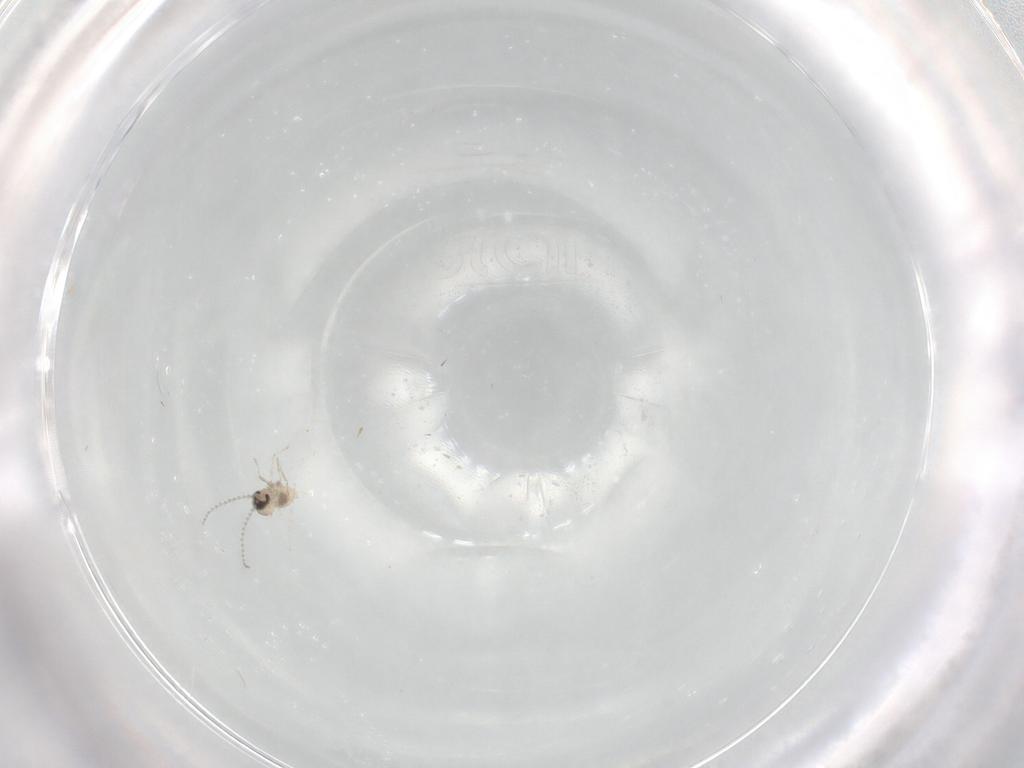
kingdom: Animalia
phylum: Arthropoda
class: Insecta
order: Diptera
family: Cecidomyiidae
